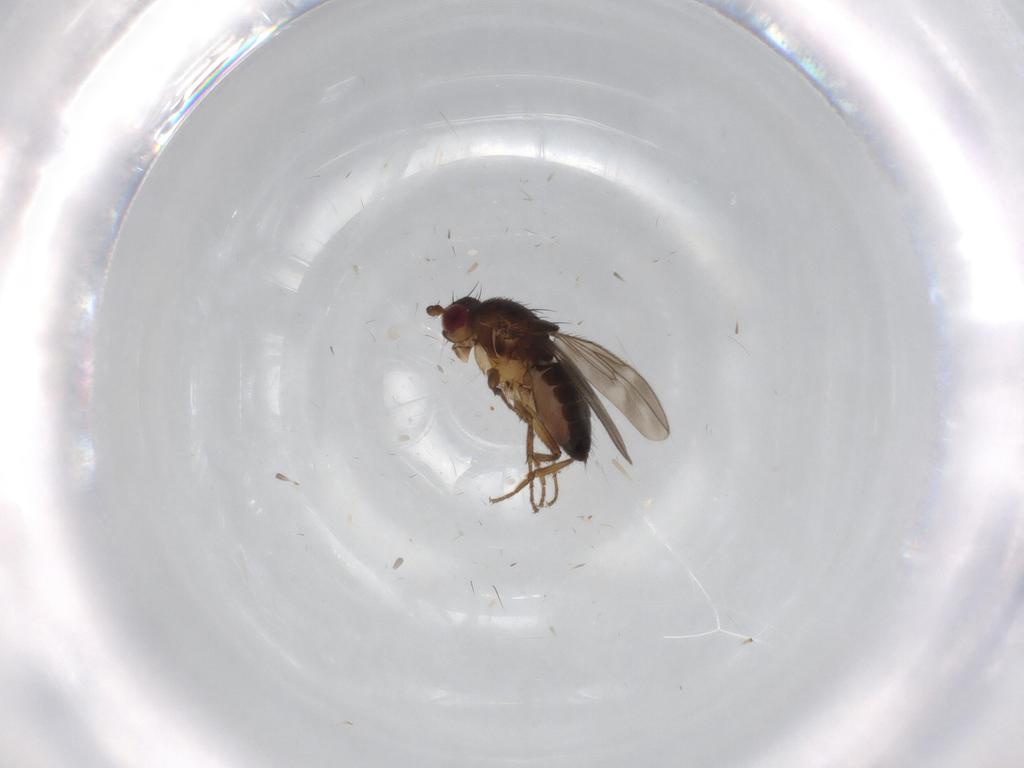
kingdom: Animalia
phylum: Arthropoda
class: Insecta
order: Diptera
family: Sphaeroceridae
